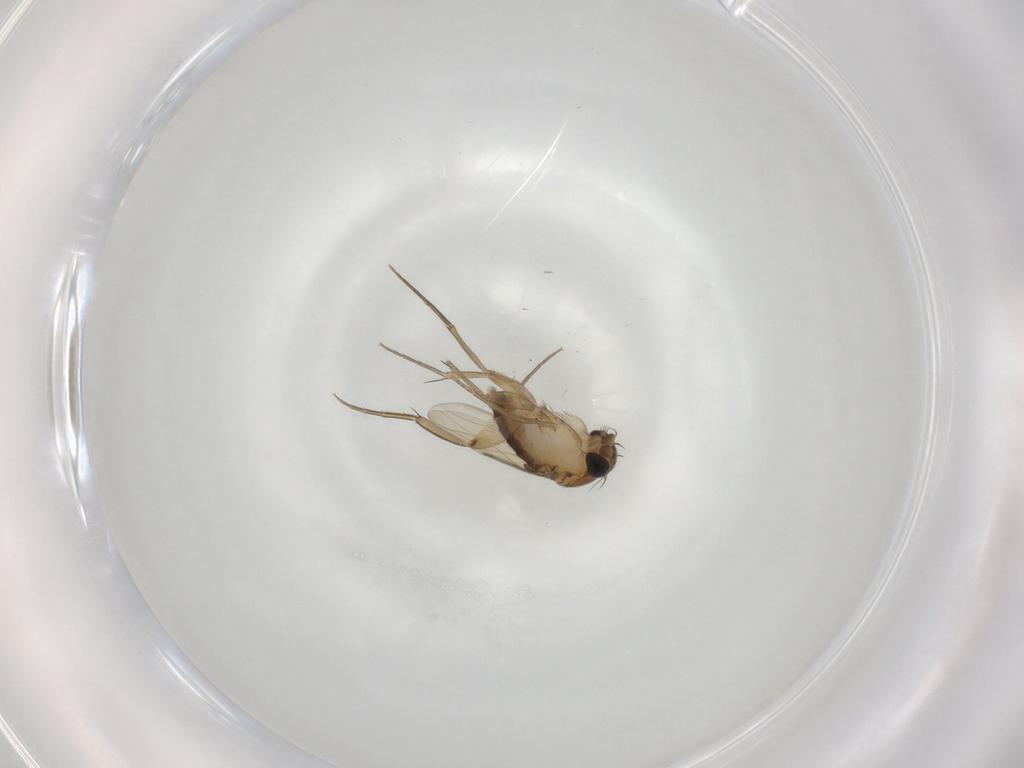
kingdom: Animalia
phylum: Arthropoda
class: Insecta
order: Diptera
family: Phoridae
